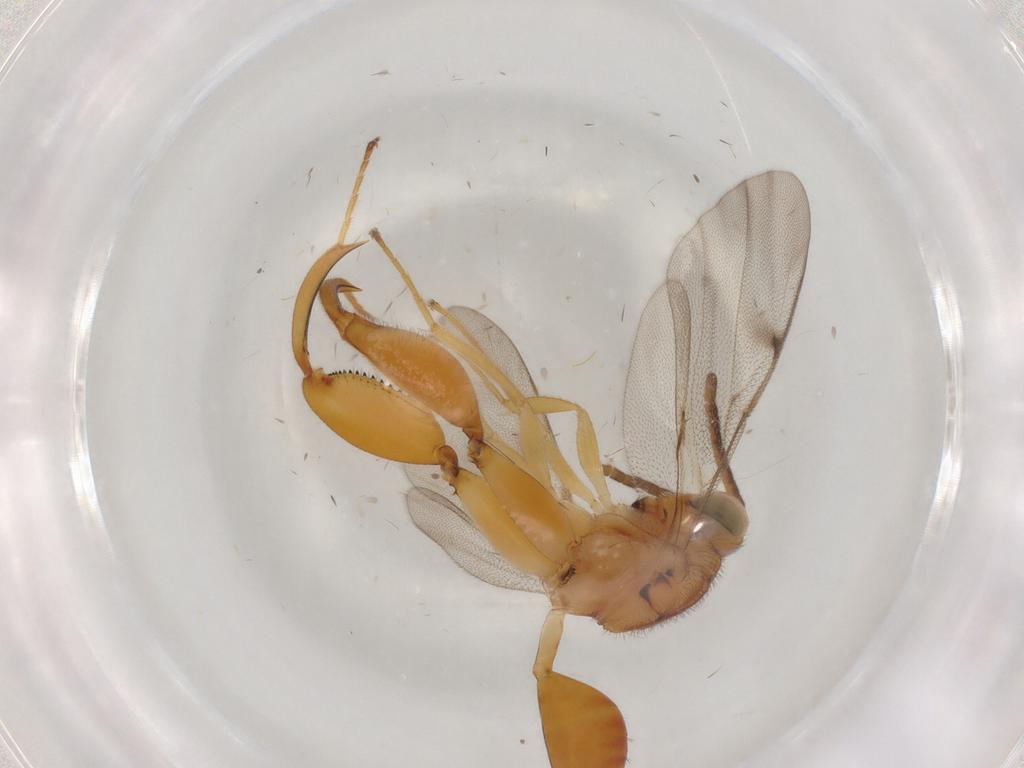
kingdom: Animalia
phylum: Arthropoda
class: Insecta
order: Hymenoptera
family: Chalcididae
